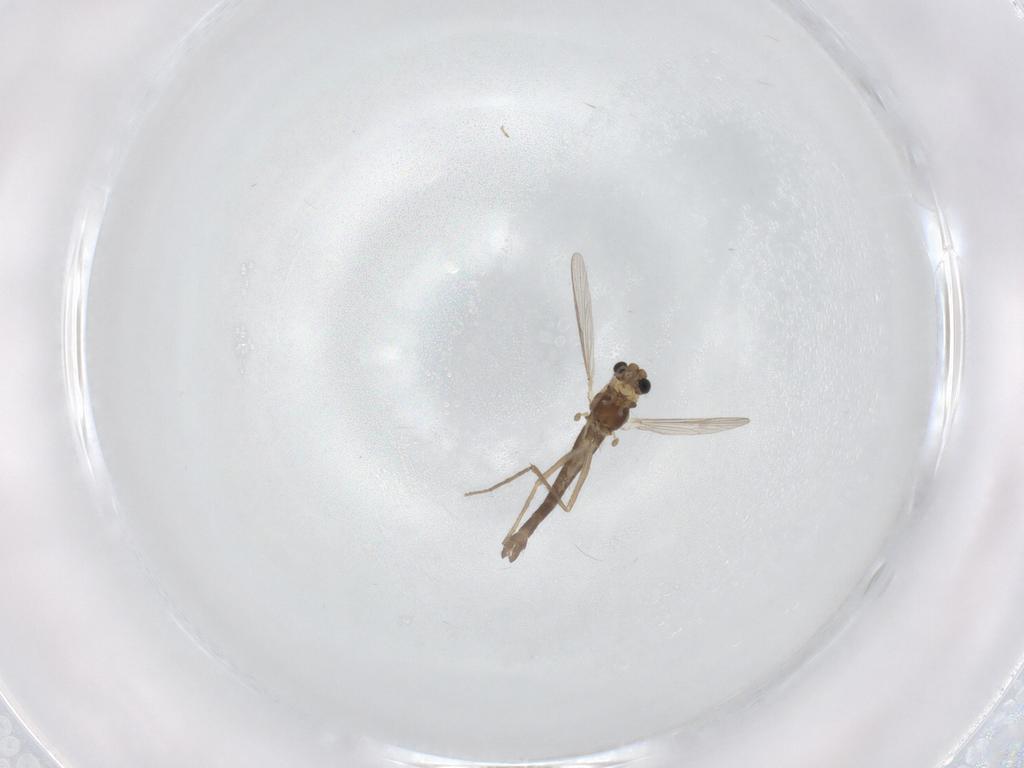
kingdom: Animalia
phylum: Arthropoda
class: Insecta
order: Diptera
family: Chironomidae
